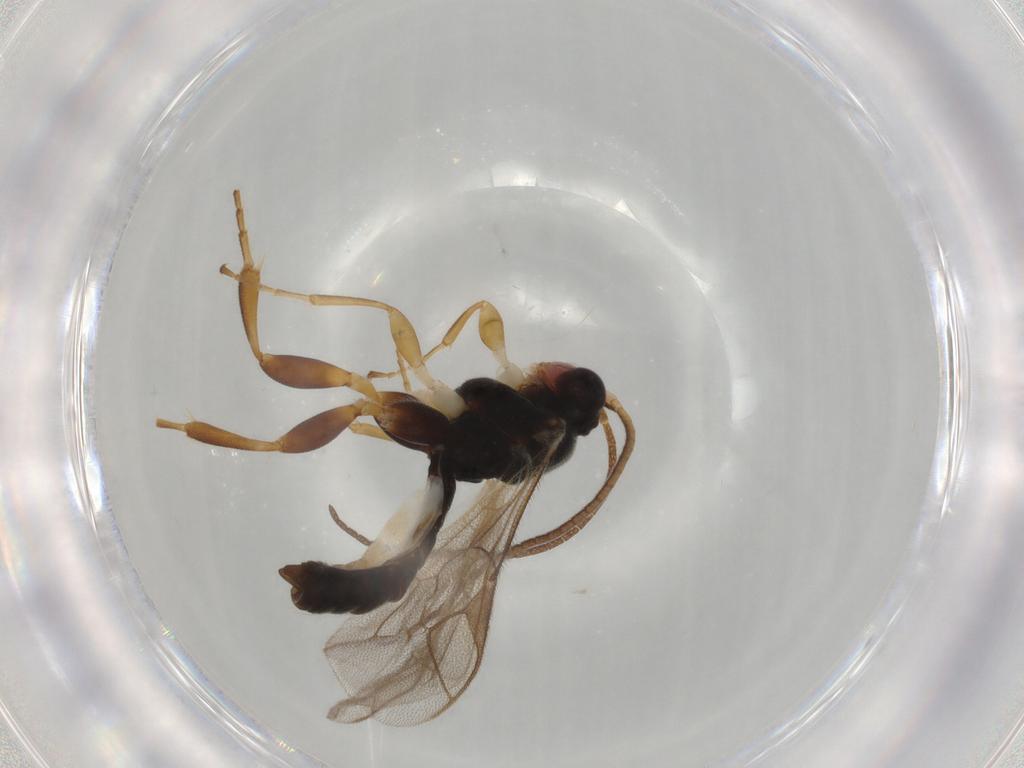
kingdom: Animalia
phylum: Arthropoda
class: Insecta
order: Hymenoptera
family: Ichneumonidae
